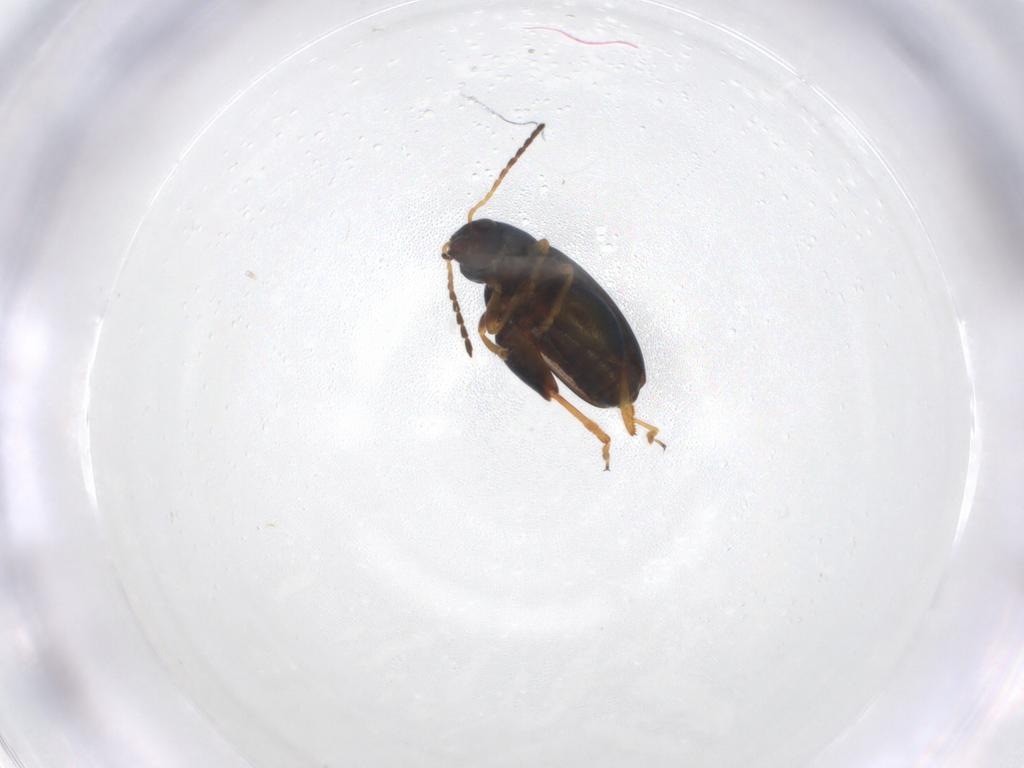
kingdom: Animalia
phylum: Arthropoda
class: Insecta
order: Coleoptera
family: Chrysomelidae
